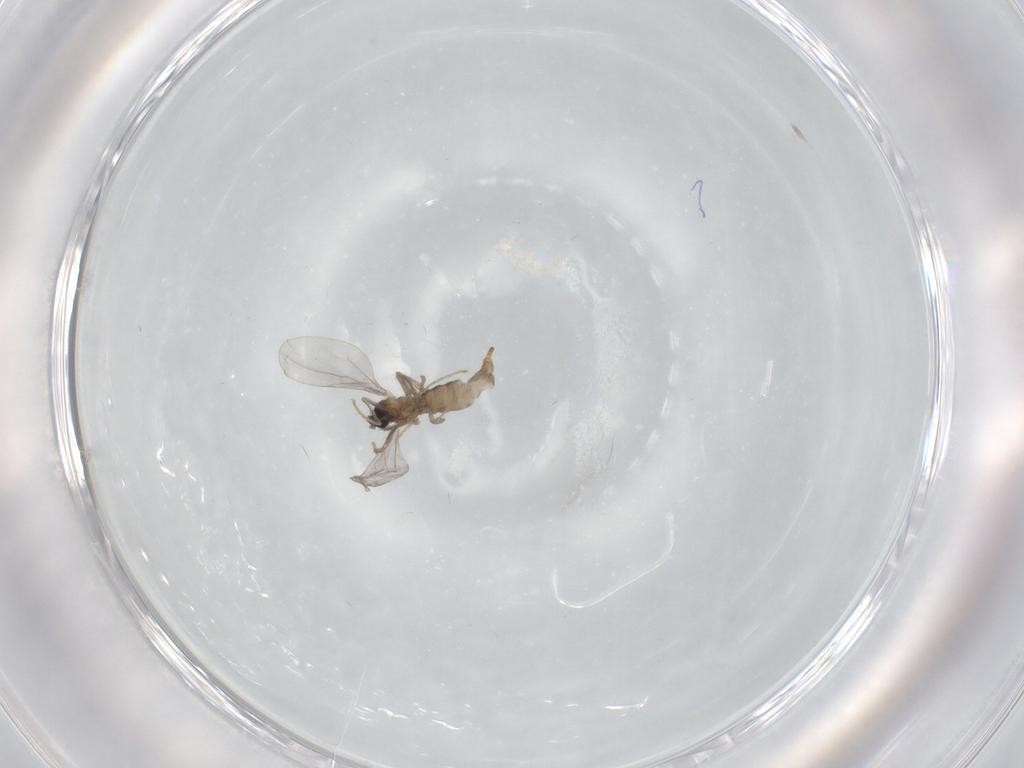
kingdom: Animalia
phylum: Arthropoda
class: Insecta
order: Diptera
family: Cecidomyiidae
